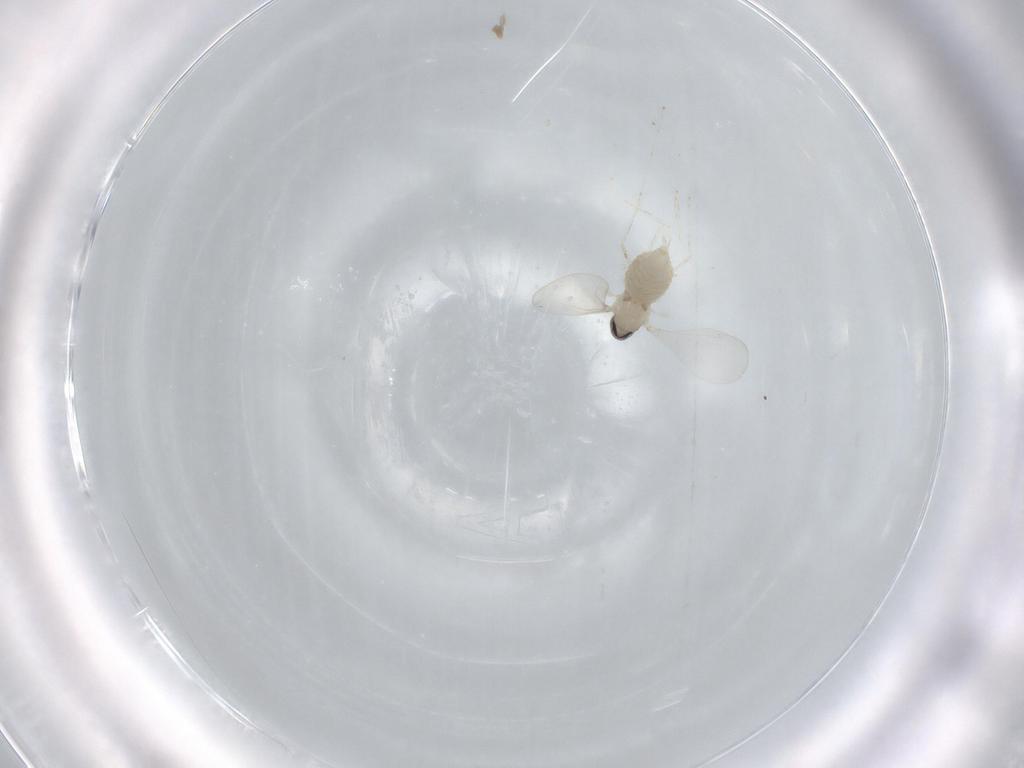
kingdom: Animalia
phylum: Arthropoda
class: Insecta
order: Diptera
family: Cecidomyiidae
